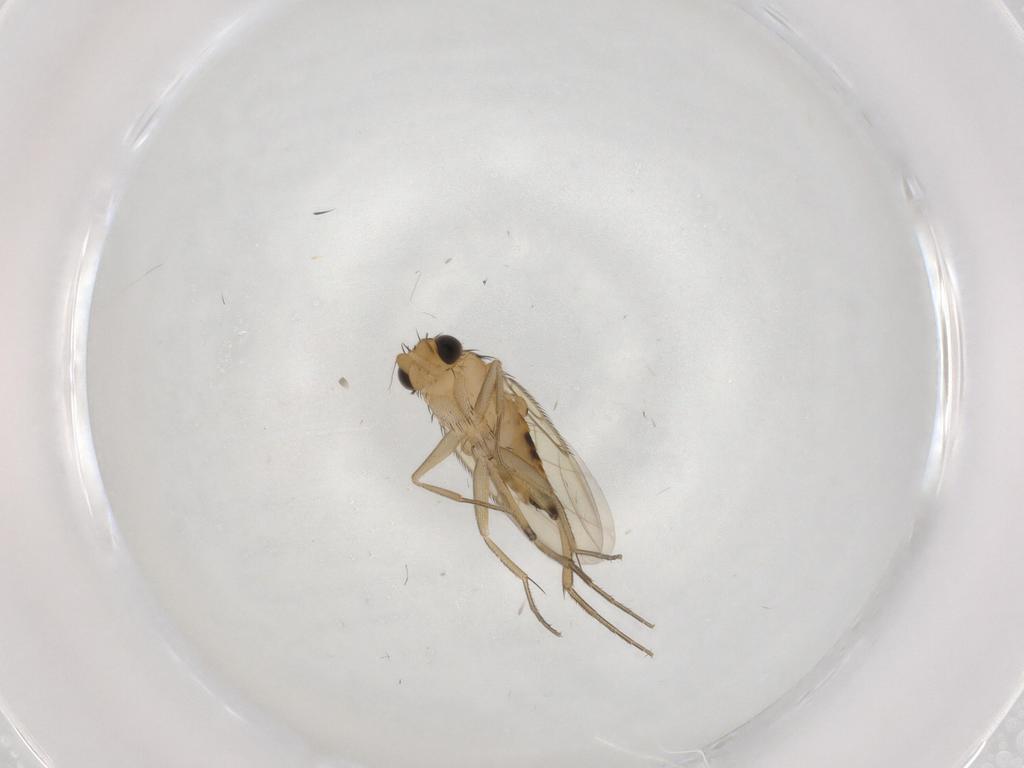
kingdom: Animalia
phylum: Arthropoda
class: Insecta
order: Diptera
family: Phoridae
